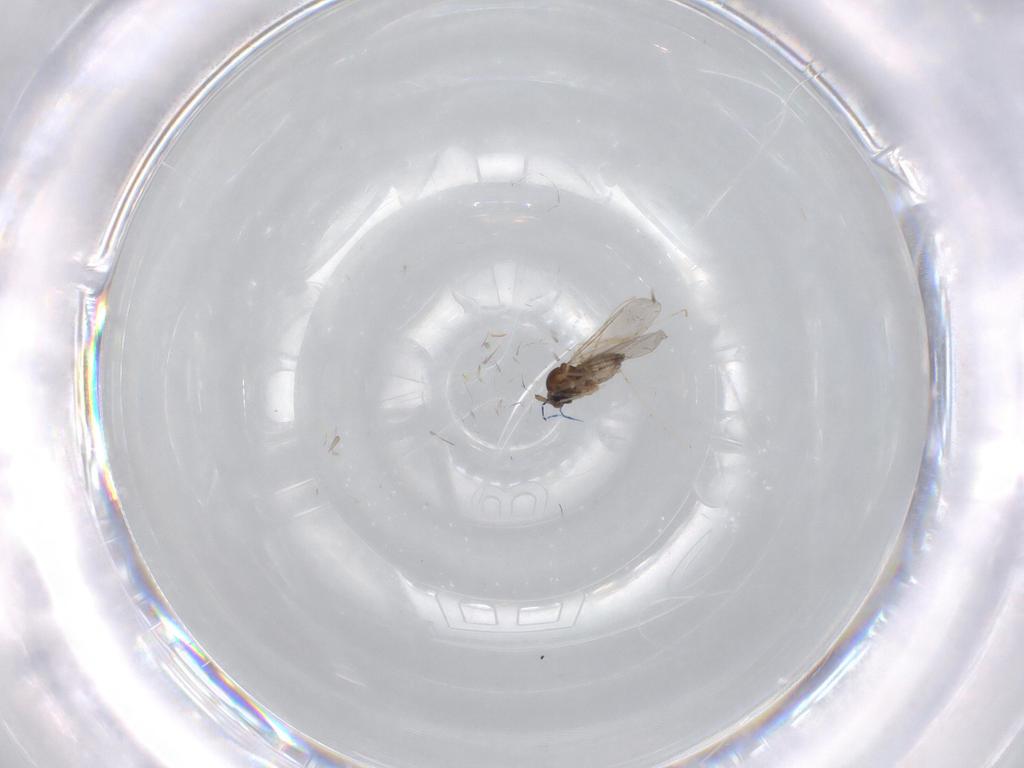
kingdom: Animalia
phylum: Arthropoda
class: Insecta
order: Diptera
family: Cecidomyiidae
